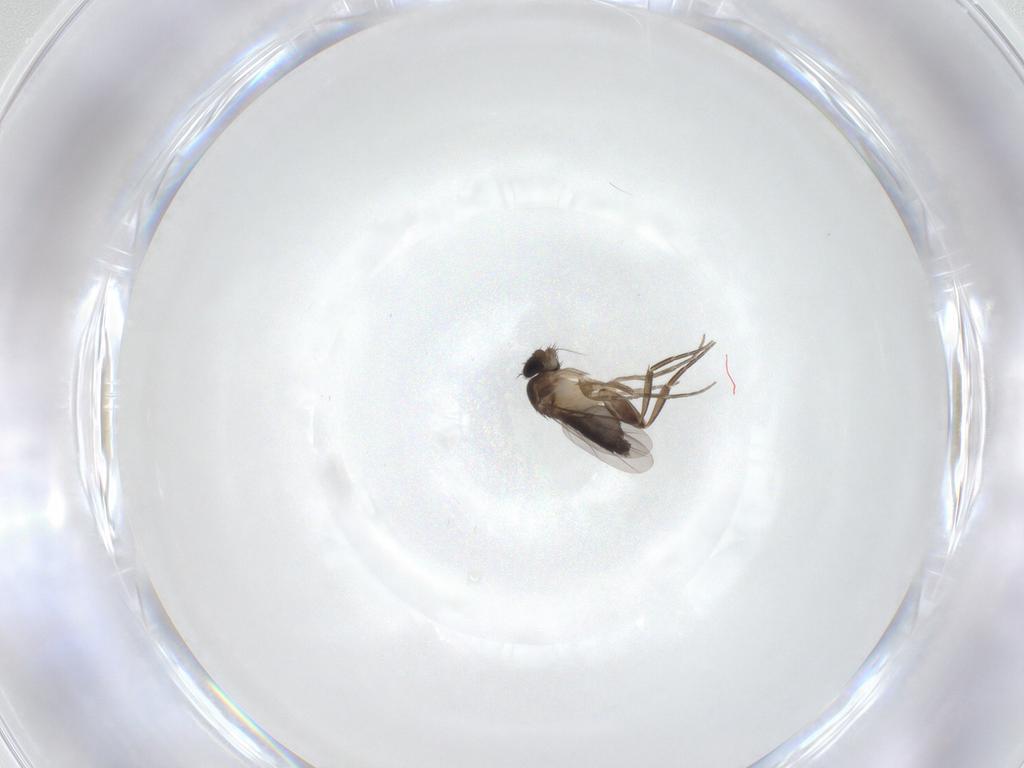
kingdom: Animalia
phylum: Arthropoda
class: Insecta
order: Diptera
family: Phoridae
